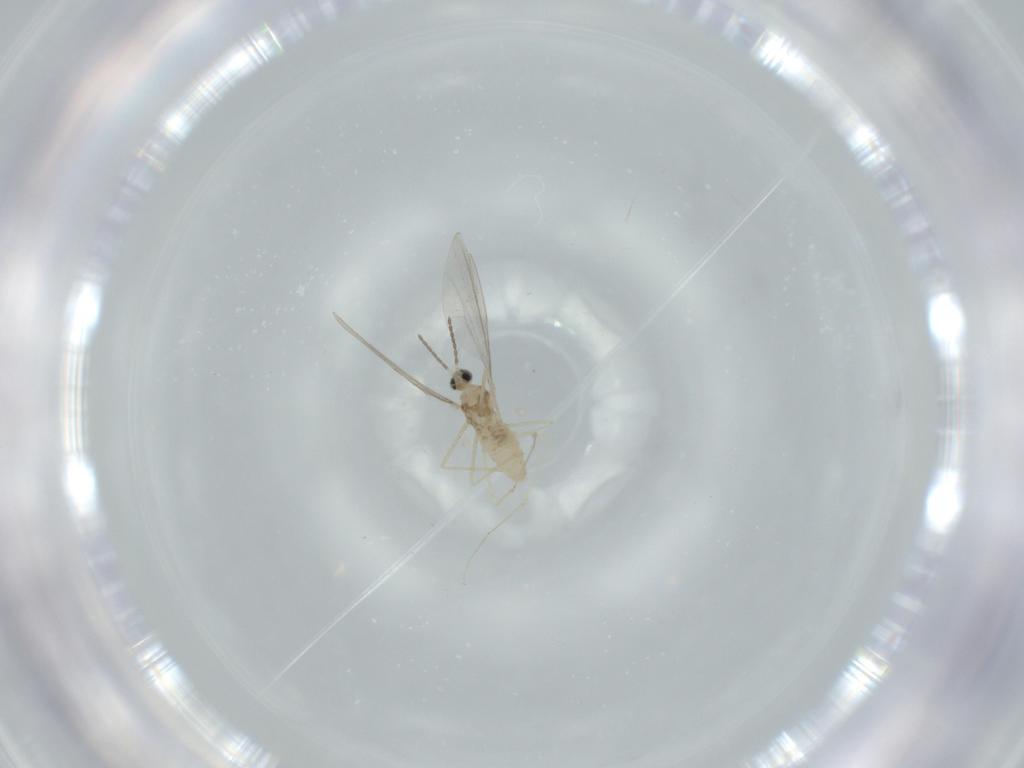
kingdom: Animalia
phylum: Arthropoda
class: Insecta
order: Diptera
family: Cecidomyiidae
